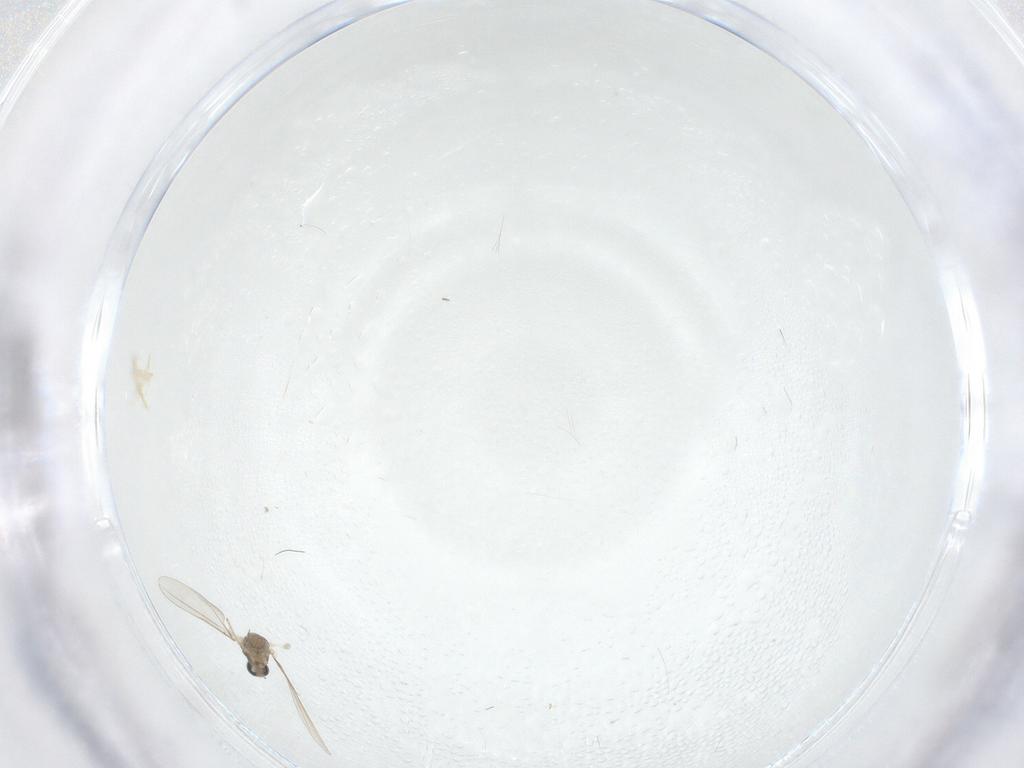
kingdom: Animalia
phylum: Arthropoda
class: Insecta
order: Diptera
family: Cecidomyiidae
